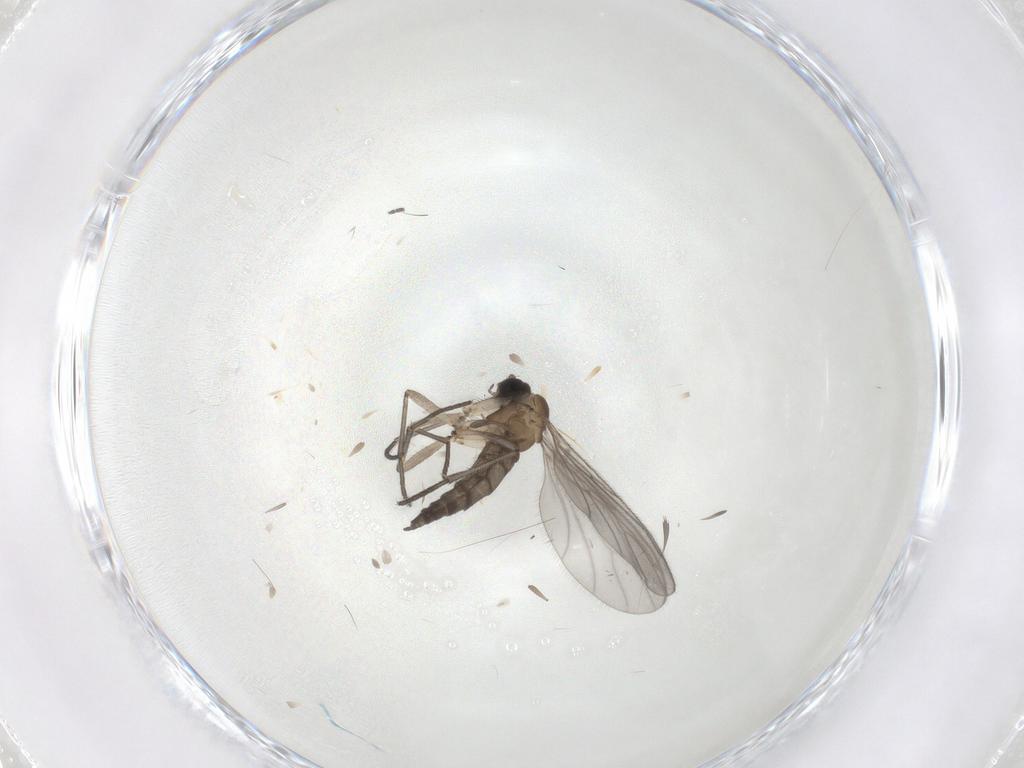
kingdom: Animalia
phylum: Arthropoda
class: Insecta
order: Diptera
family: Sciaridae
